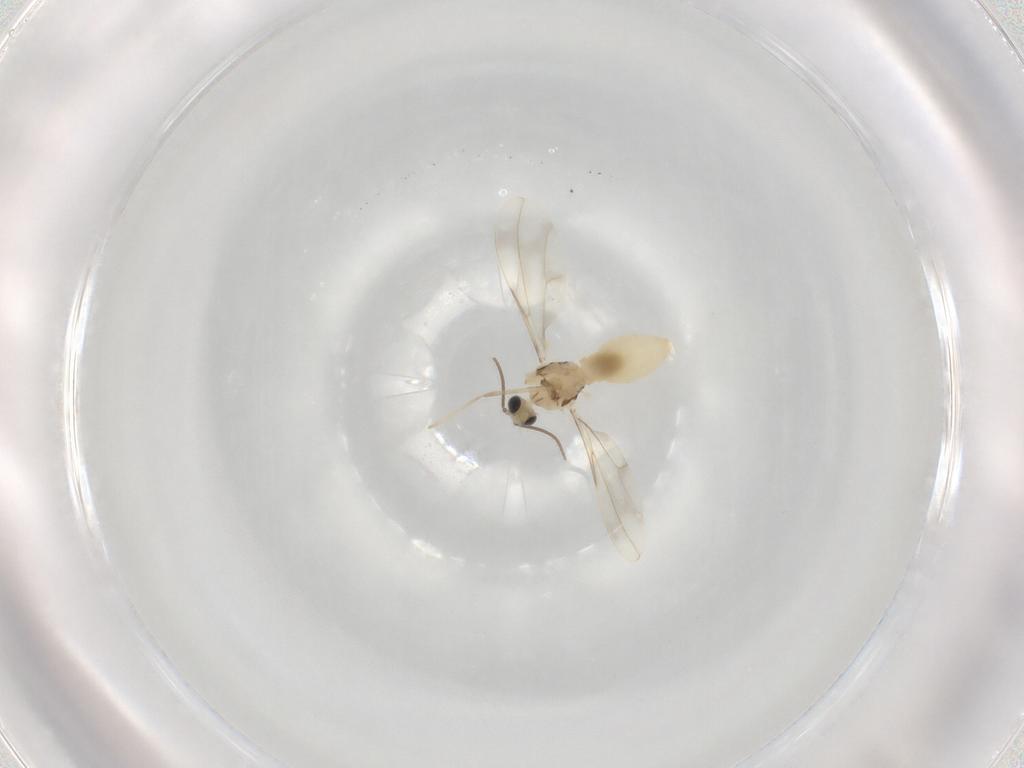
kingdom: Animalia
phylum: Arthropoda
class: Insecta
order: Diptera
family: Cecidomyiidae
